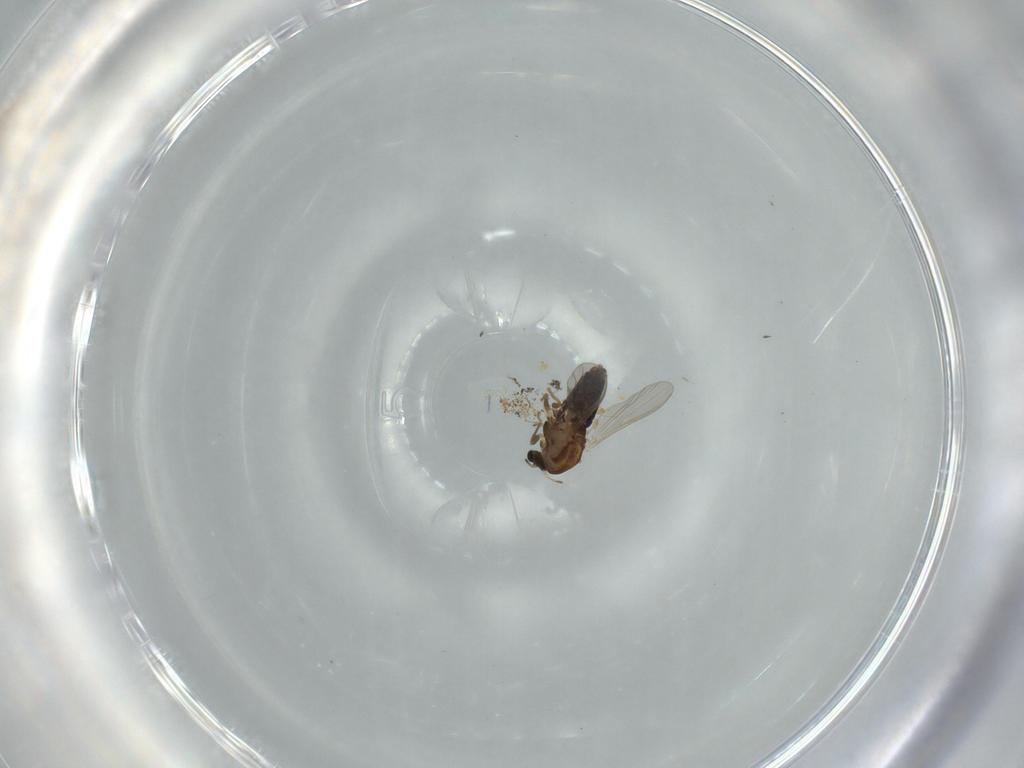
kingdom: Animalia
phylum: Arthropoda
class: Insecta
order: Diptera
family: Chironomidae
